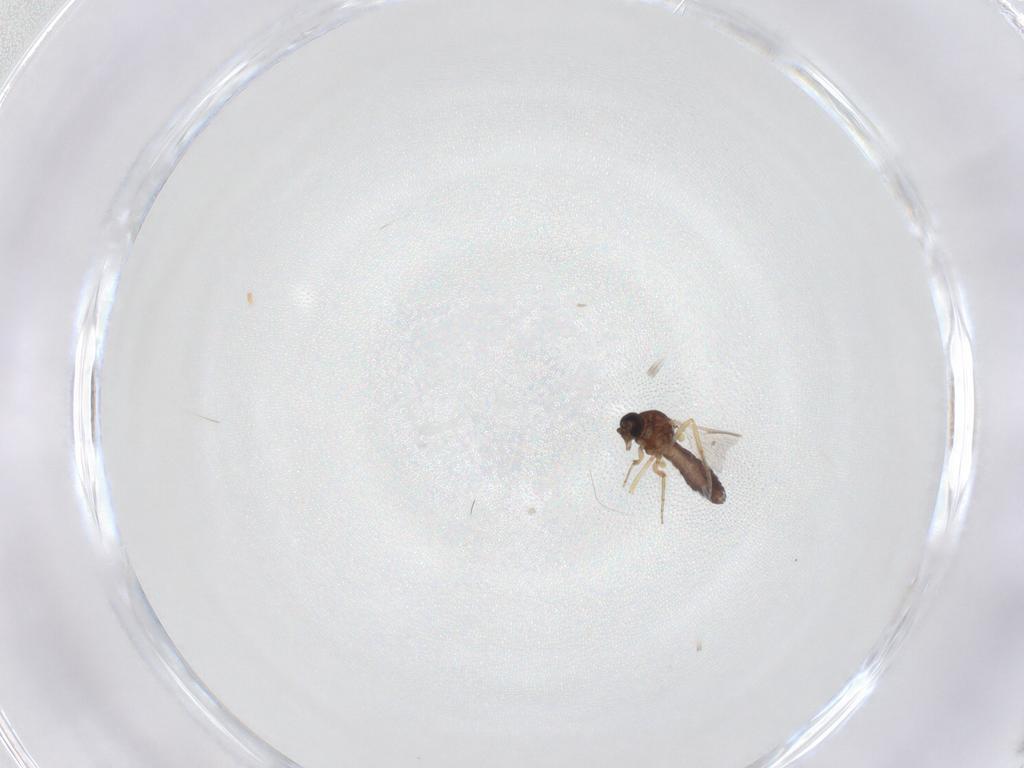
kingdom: Animalia
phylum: Arthropoda
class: Insecta
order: Diptera
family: Ceratopogonidae
